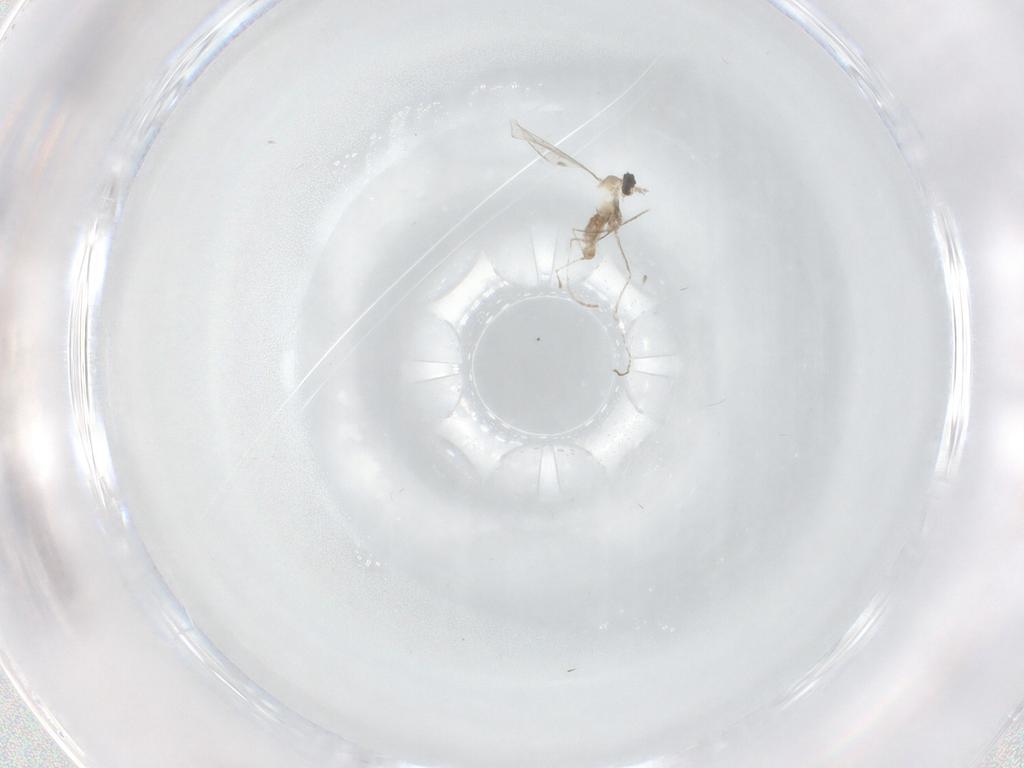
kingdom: Animalia
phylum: Arthropoda
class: Insecta
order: Diptera
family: Cecidomyiidae
